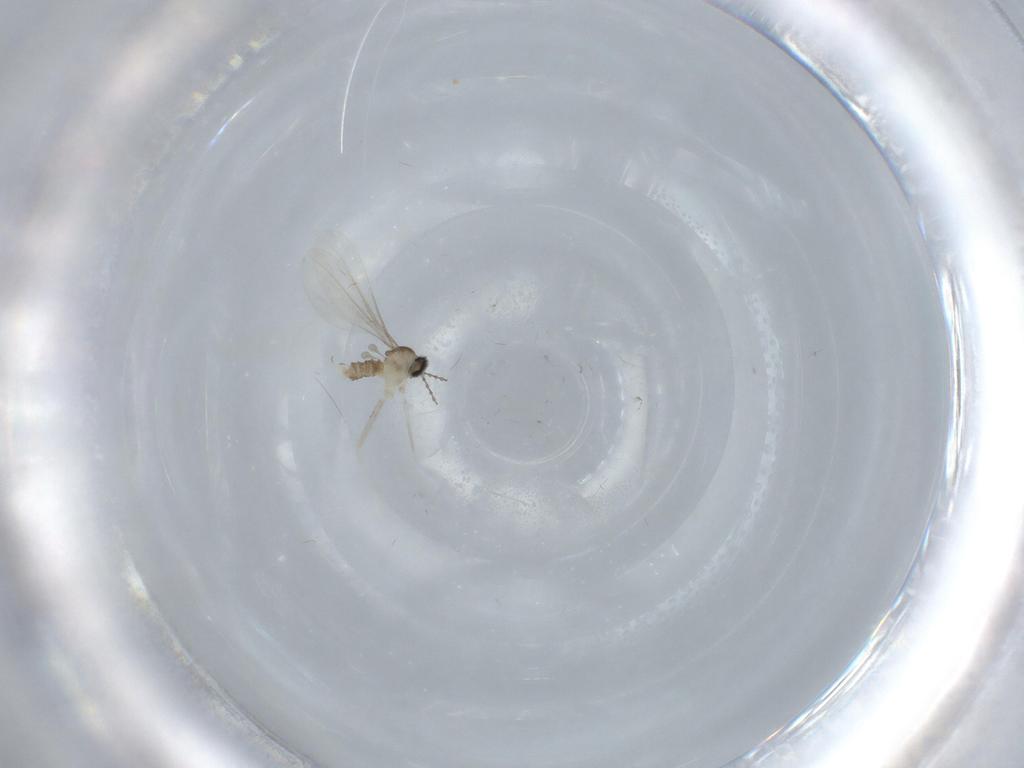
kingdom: Animalia
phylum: Arthropoda
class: Insecta
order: Diptera
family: Cecidomyiidae
